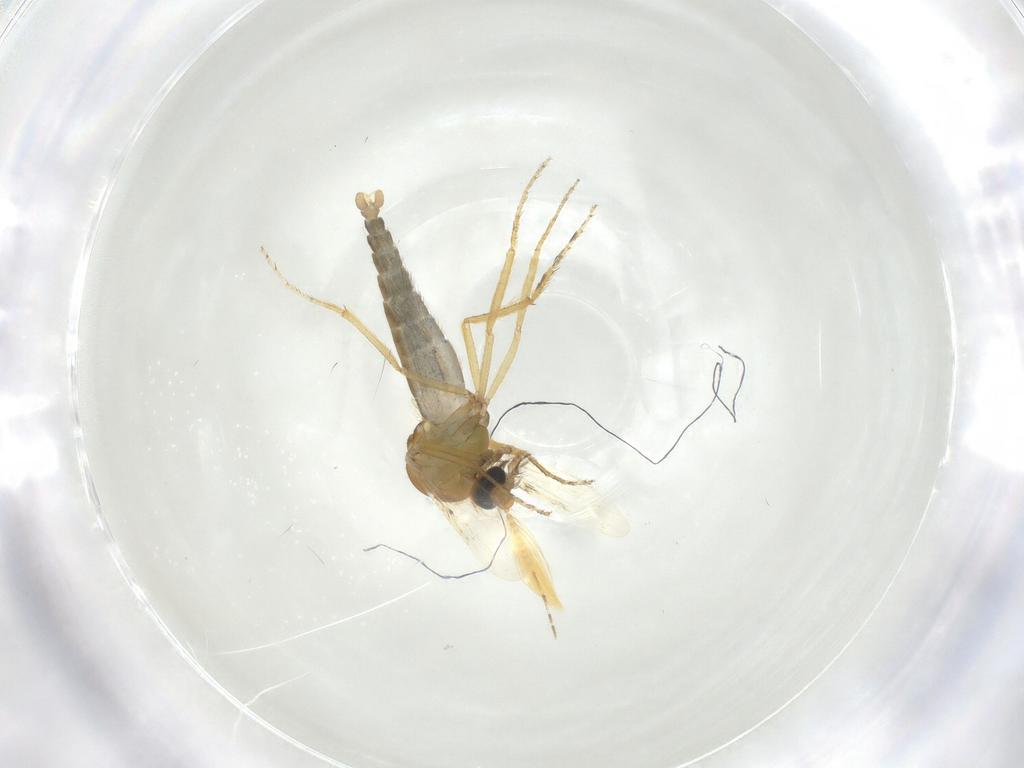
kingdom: Animalia
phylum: Arthropoda
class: Insecta
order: Diptera
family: Ceratopogonidae
